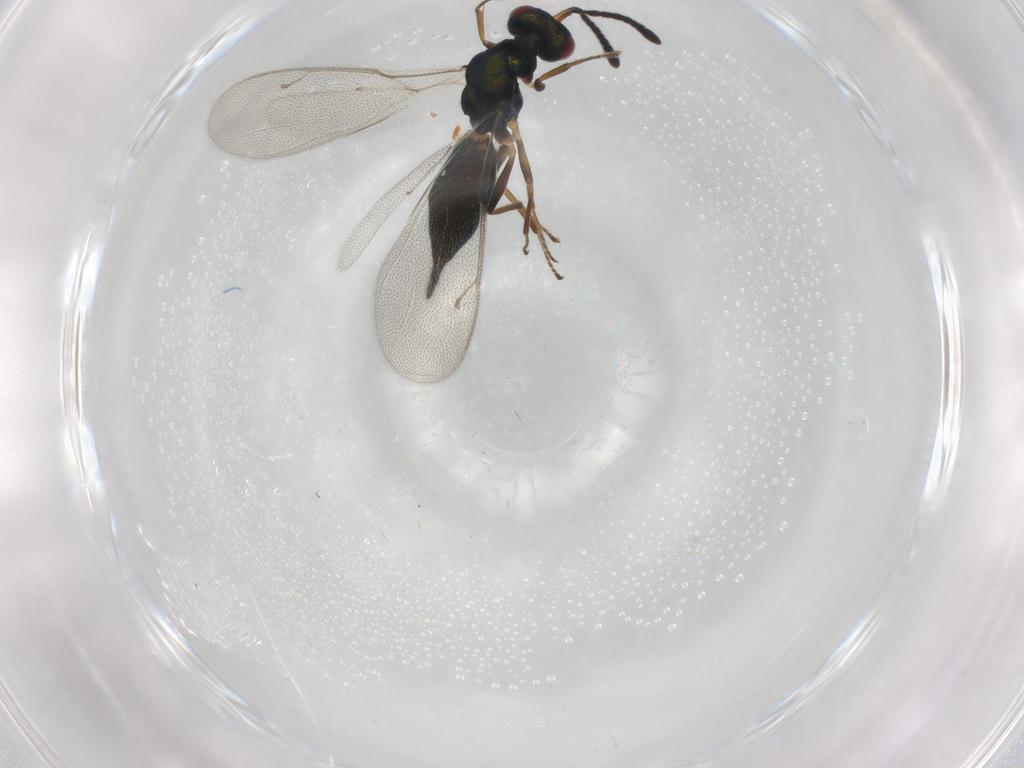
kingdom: Animalia
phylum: Arthropoda
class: Insecta
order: Hymenoptera
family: Pteromalidae
